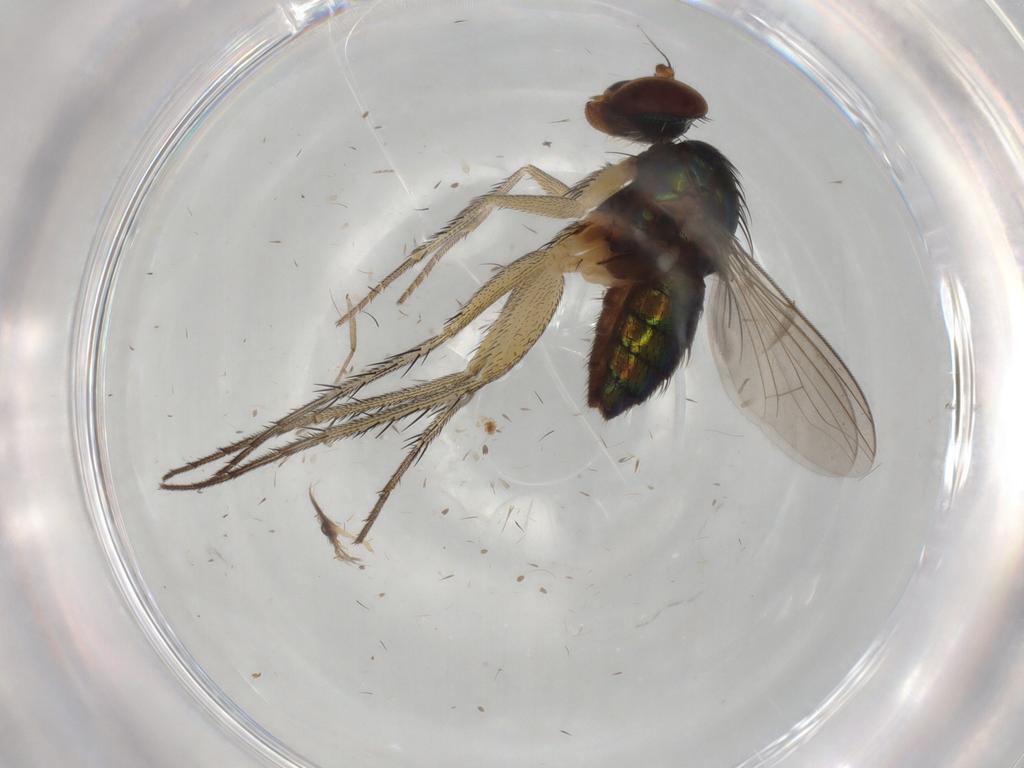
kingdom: Animalia
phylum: Arthropoda
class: Insecta
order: Diptera
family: Dolichopodidae
